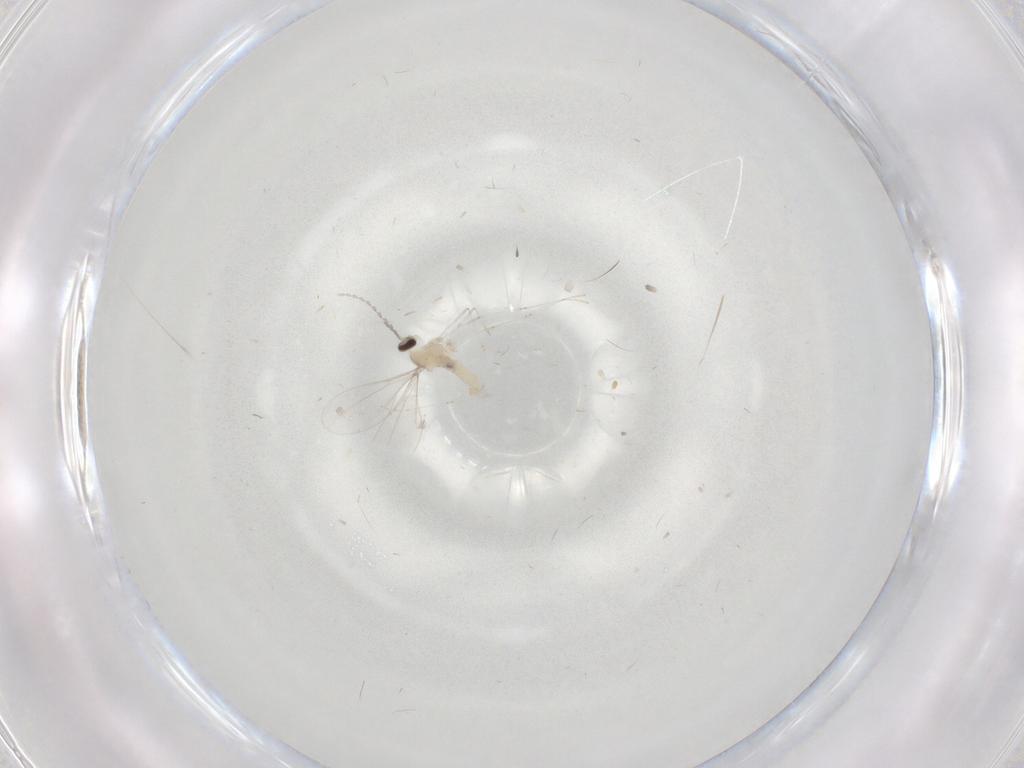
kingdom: Animalia
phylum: Arthropoda
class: Insecta
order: Diptera
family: Cecidomyiidae
